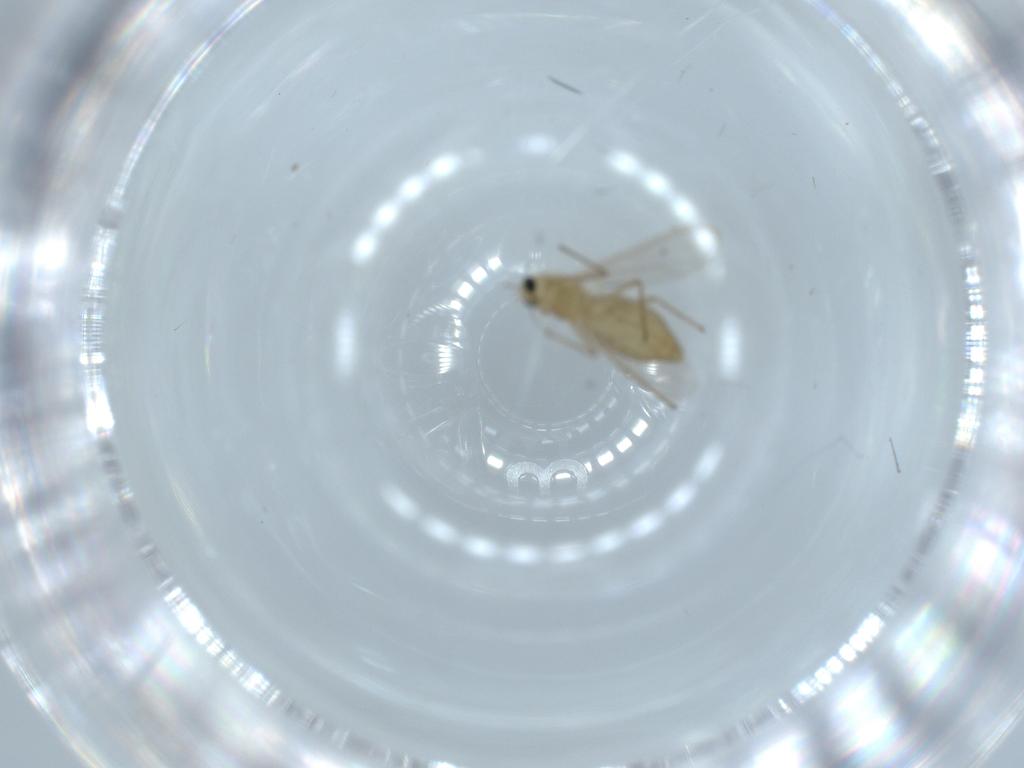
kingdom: Animalia
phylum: Arthropoda
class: Insecta
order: Diptera
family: Chironomidae
